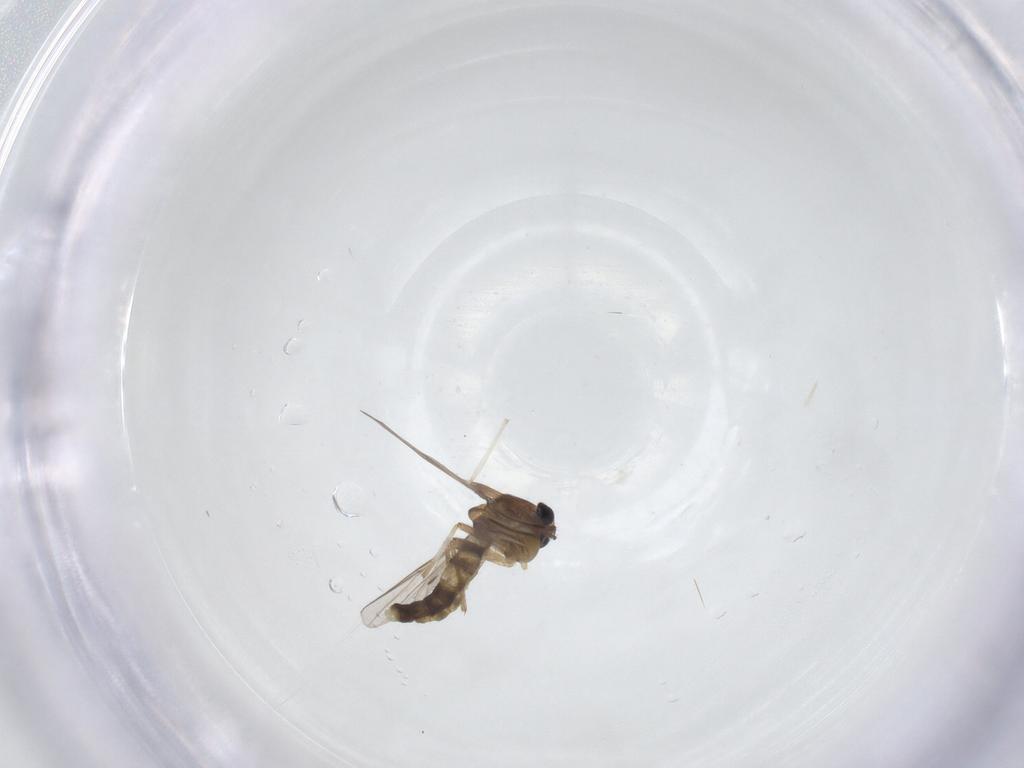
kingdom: Animalia
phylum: Arthropoda
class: Insecta
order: Diptera
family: Chironomidae
